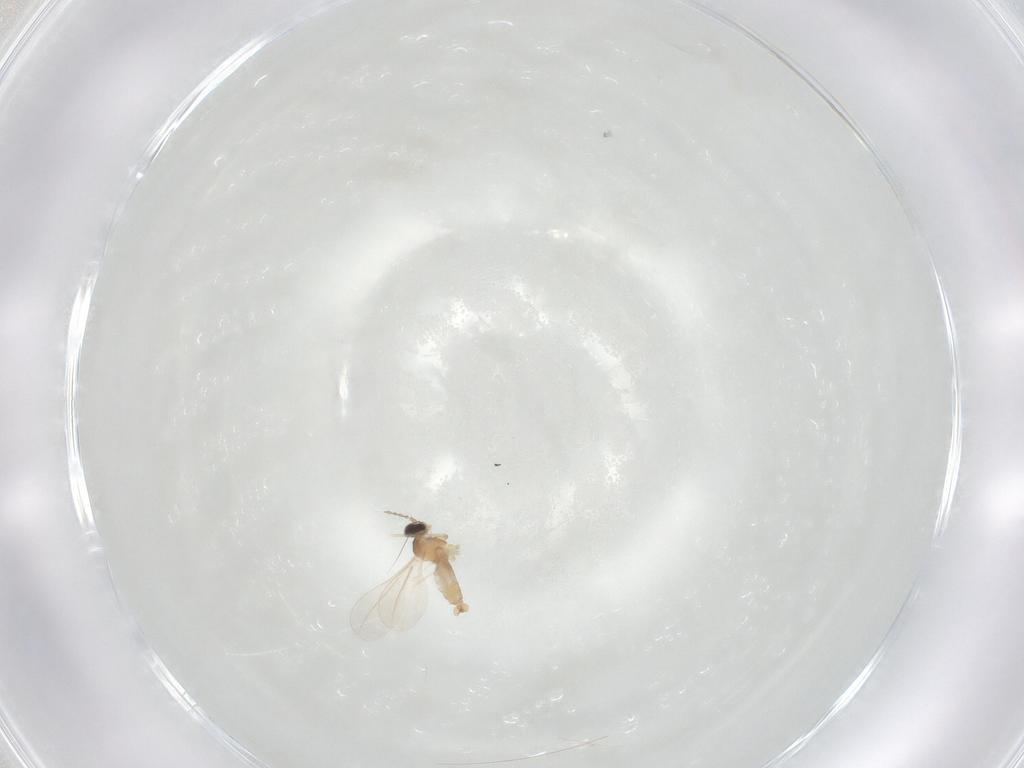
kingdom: Animalia
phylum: Arthropoda
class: Insecta
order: Diptera
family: Cecidomyiidae
